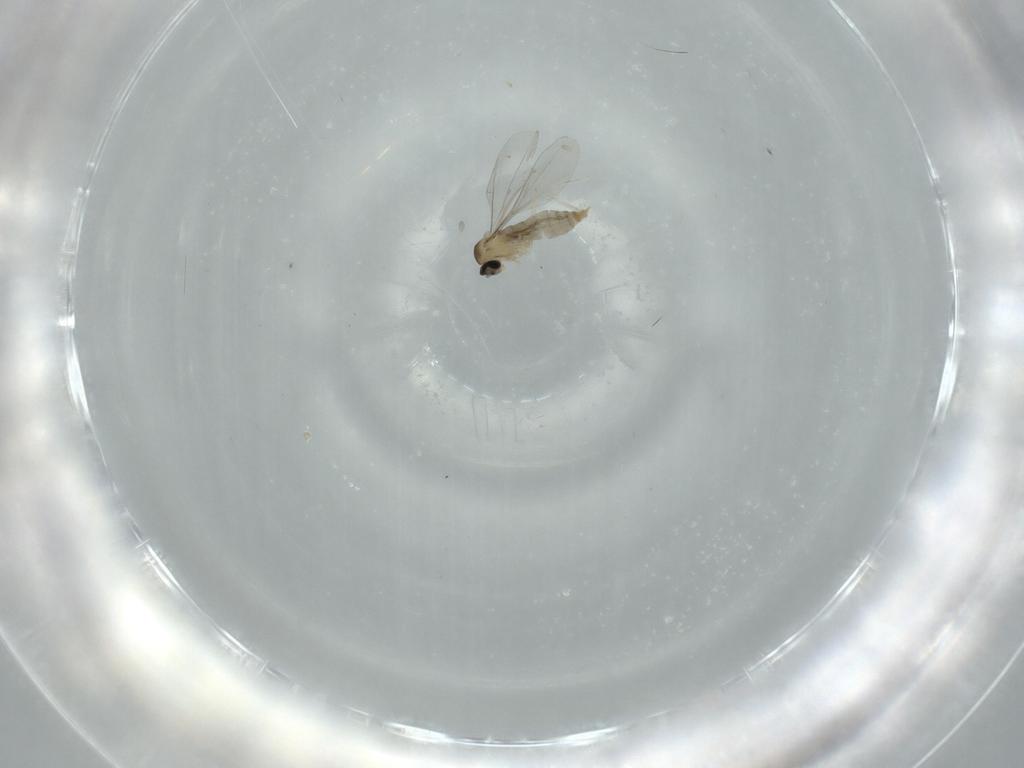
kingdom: Animalia
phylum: Arthropoda
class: Insecta
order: Diptera
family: Cecidomyiidae
